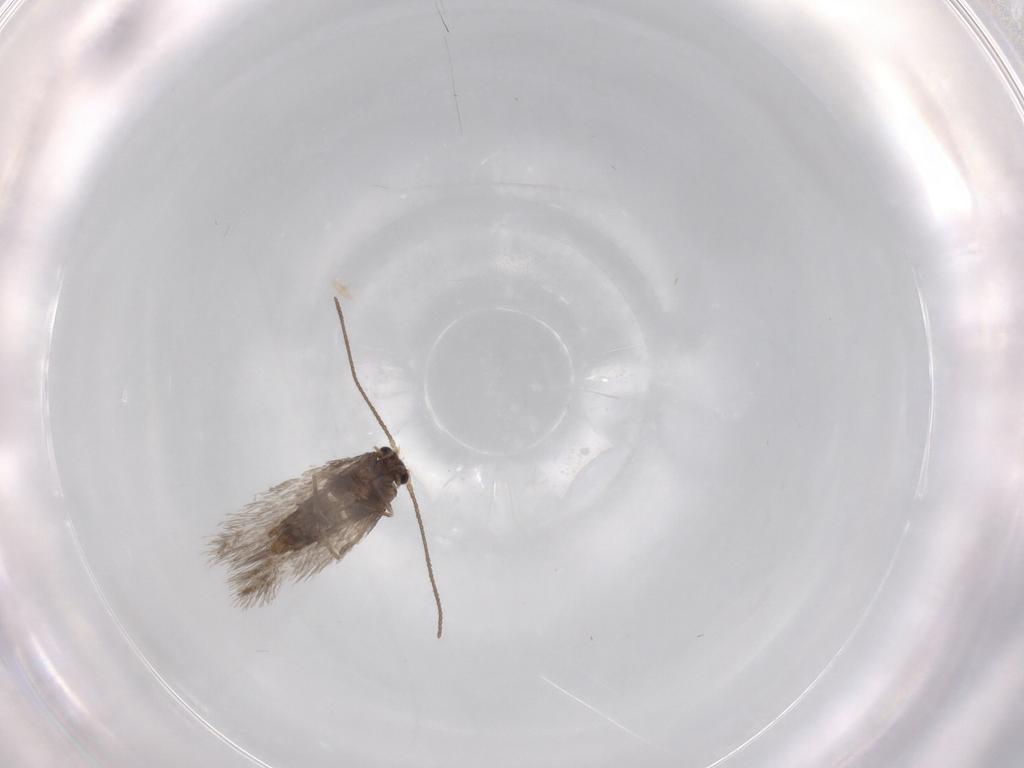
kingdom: Animalia
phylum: Arthropoda
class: Insecta
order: Lepidoptera
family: Nepticulidae
